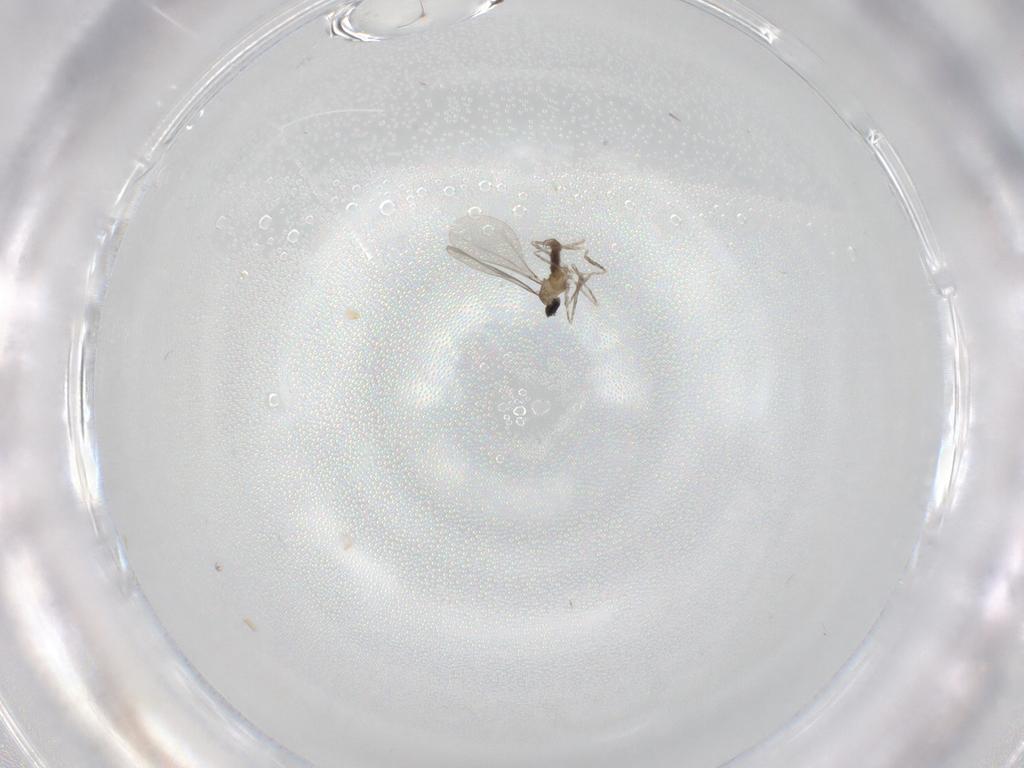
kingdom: Animalia
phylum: Arthropoda
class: Insecta
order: Diptera
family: Cecidomyiidae
